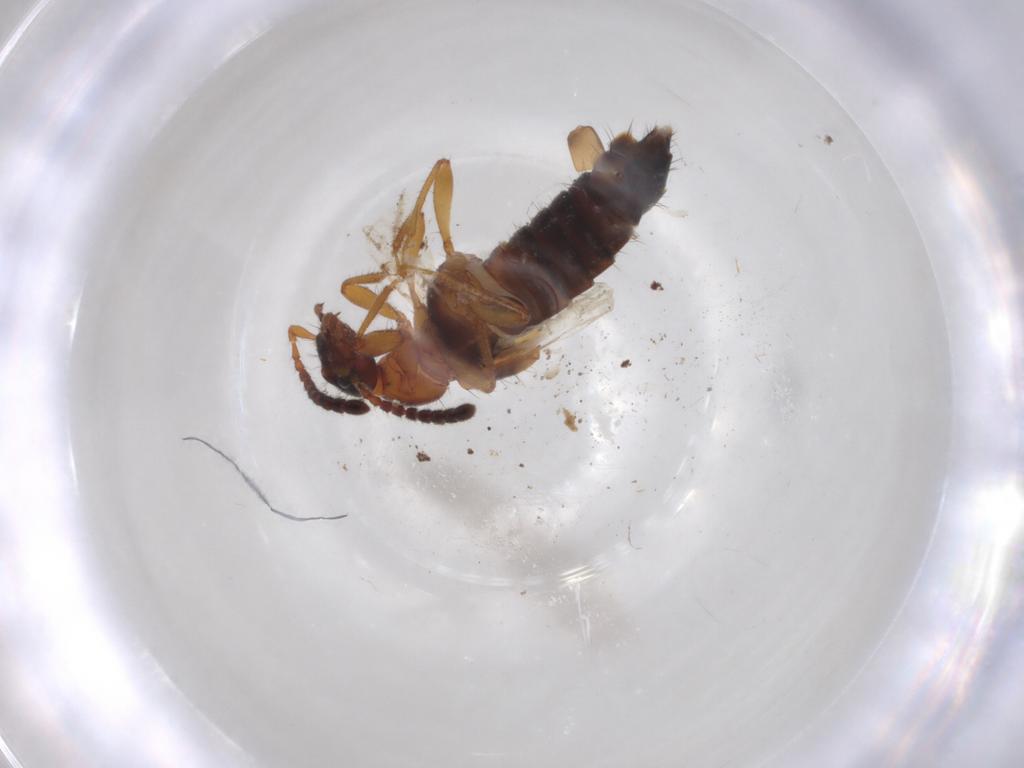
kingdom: Animalia
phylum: Arthropoda
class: Insecta
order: Coleoptera
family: Staphylinidae
